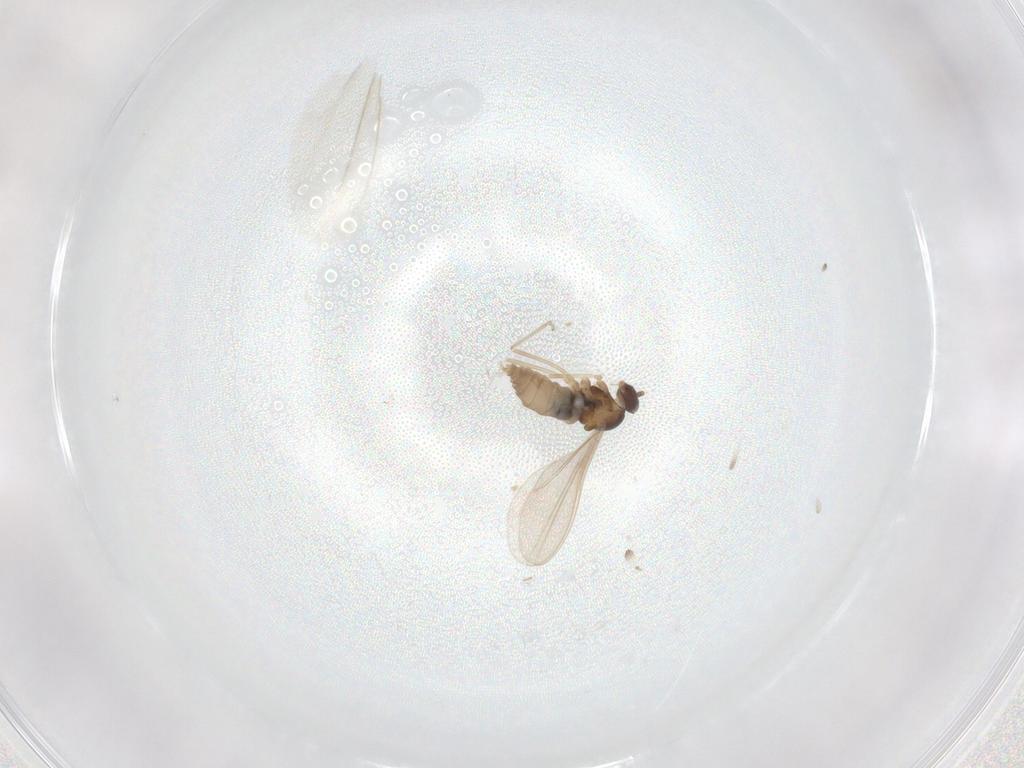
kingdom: Animalia
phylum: Arthropoda
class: Insecta
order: Diptera
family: Cecidomyiidae
